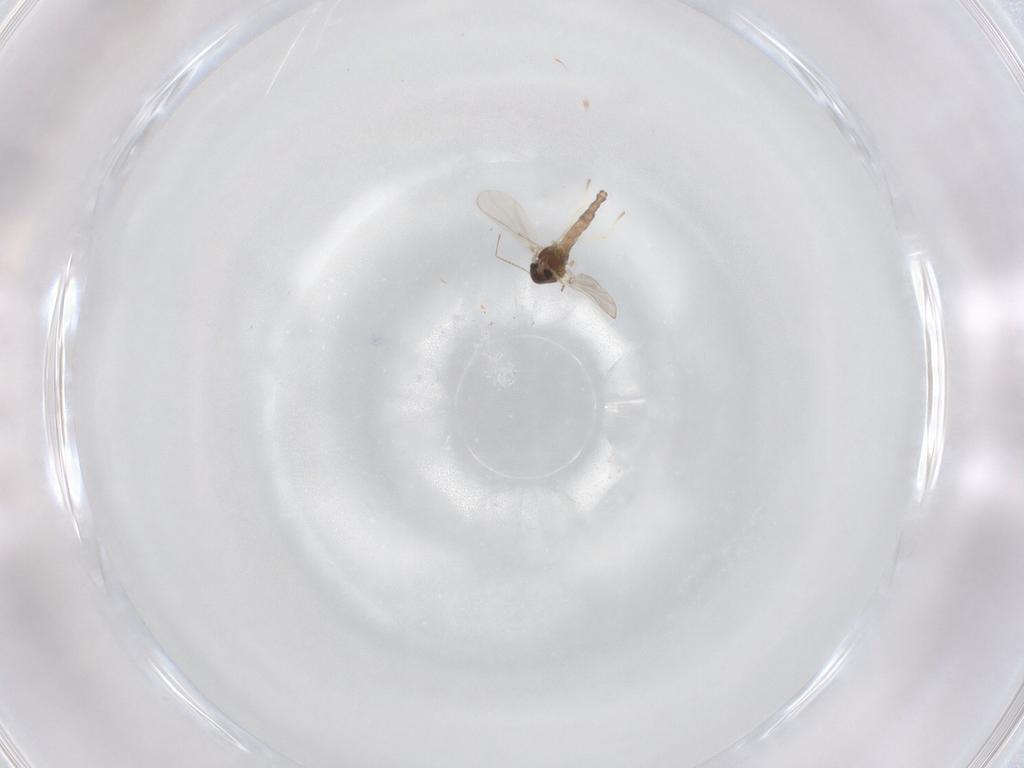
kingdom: Animalia
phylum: Arthropoda
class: Insecta
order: Diptera
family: Chironomidae
